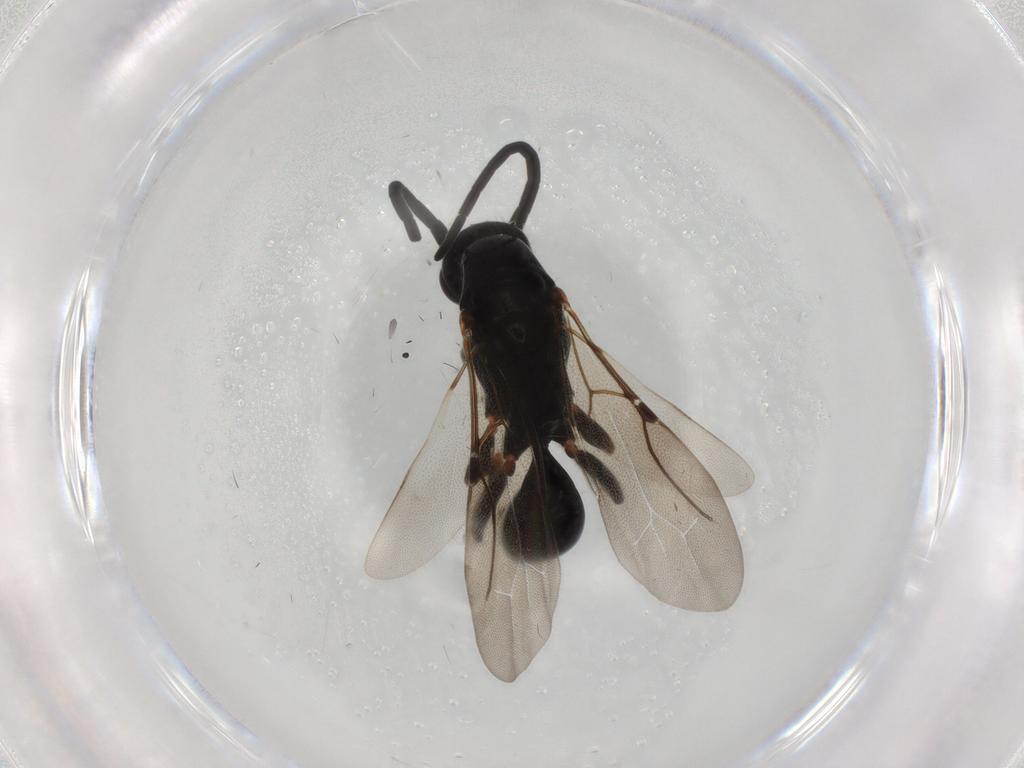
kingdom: Animalia
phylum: Arthropoda
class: Insecta
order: Hymenoptera
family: Bethylidae
